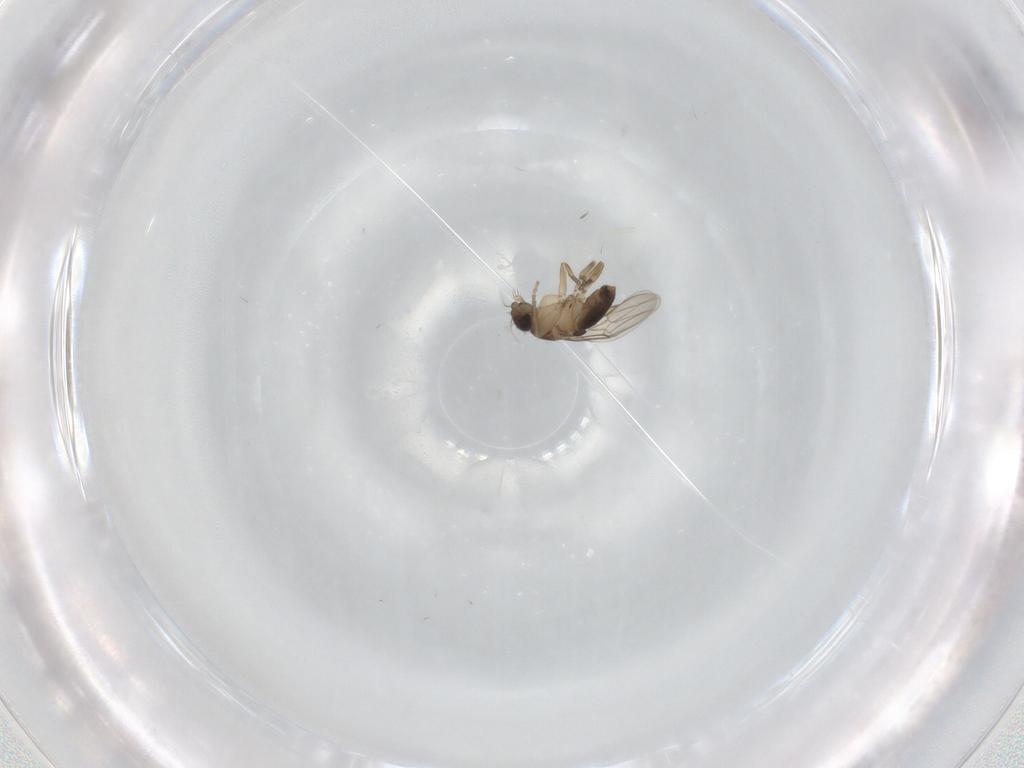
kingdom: Animalia
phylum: Arthropoda
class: Insecta
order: Diptera
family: Phoridae
